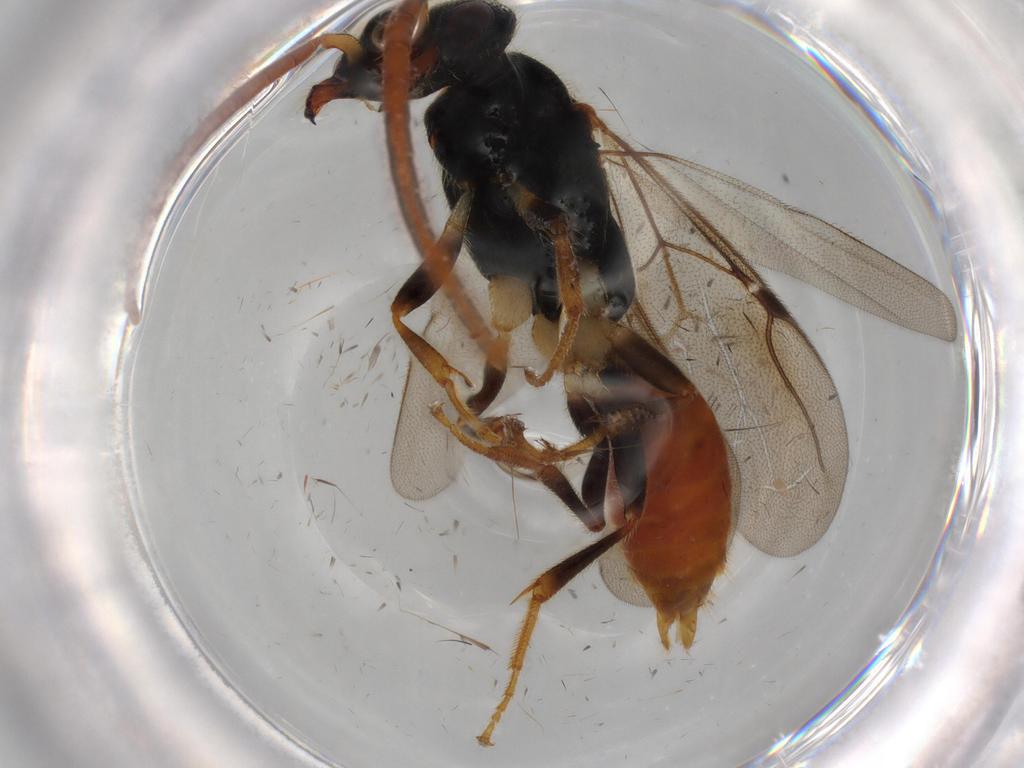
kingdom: Animalia
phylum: Arthropoda
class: Insecta
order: Hymenoptera
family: Bethylidae
